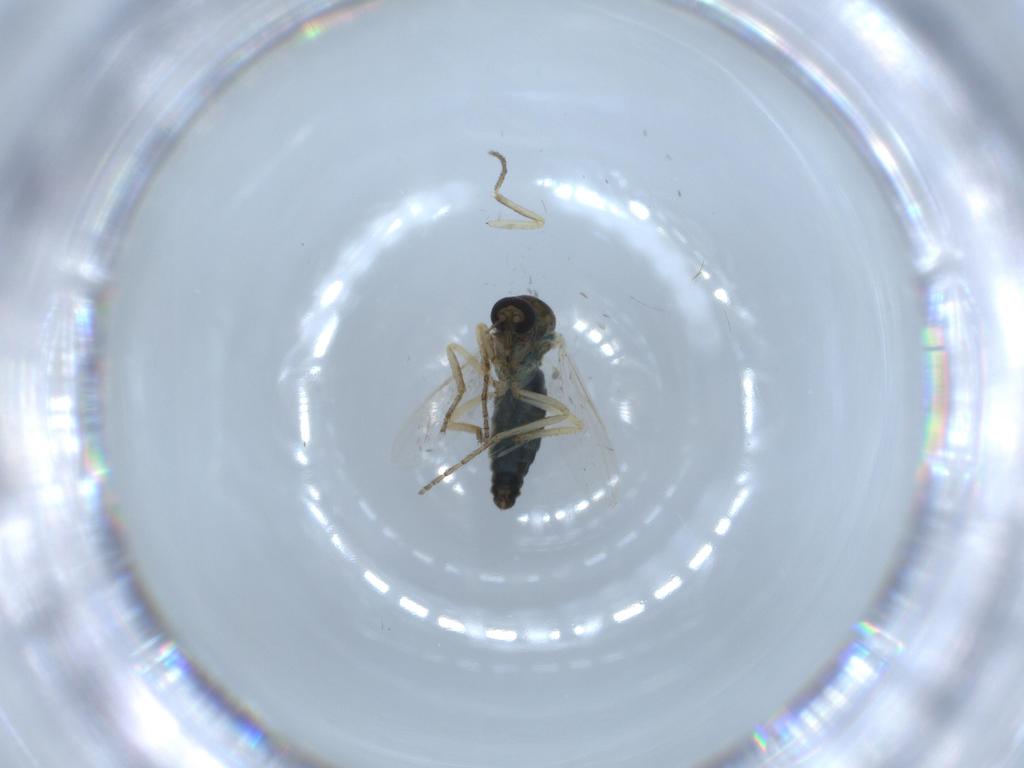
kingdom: Animalia
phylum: Arthropoda
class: Insecta
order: Diptera
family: Ceratopogonidae
